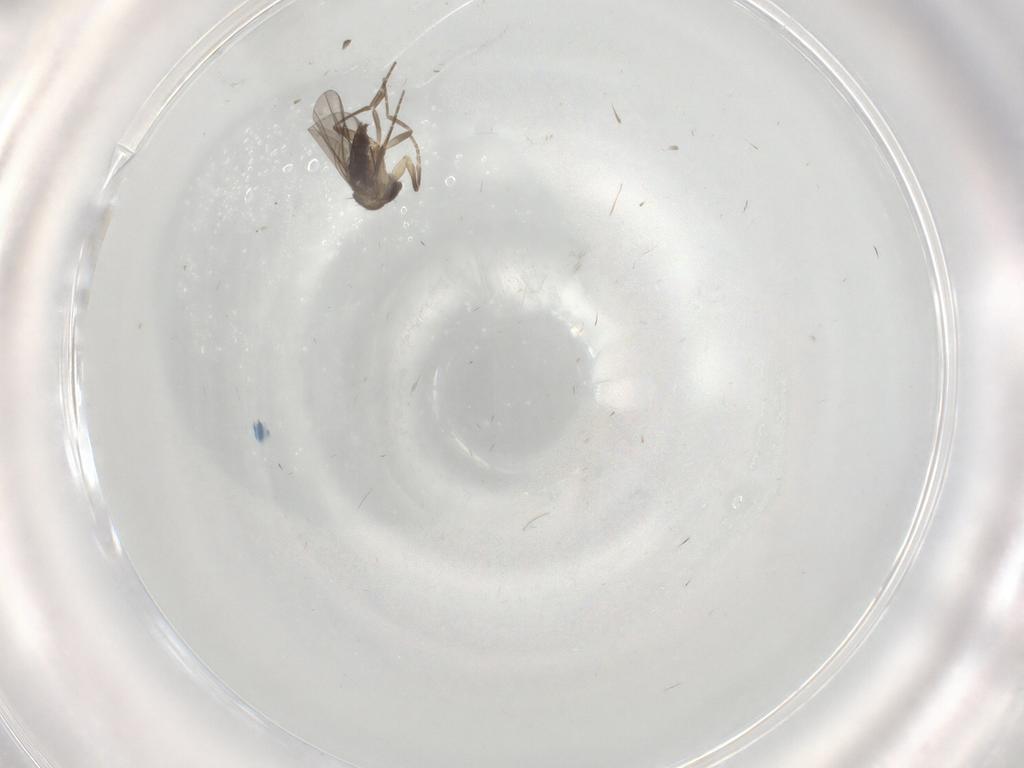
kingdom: Animalia
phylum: Arthropoda
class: Insecta
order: Diptera
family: Phoridae
